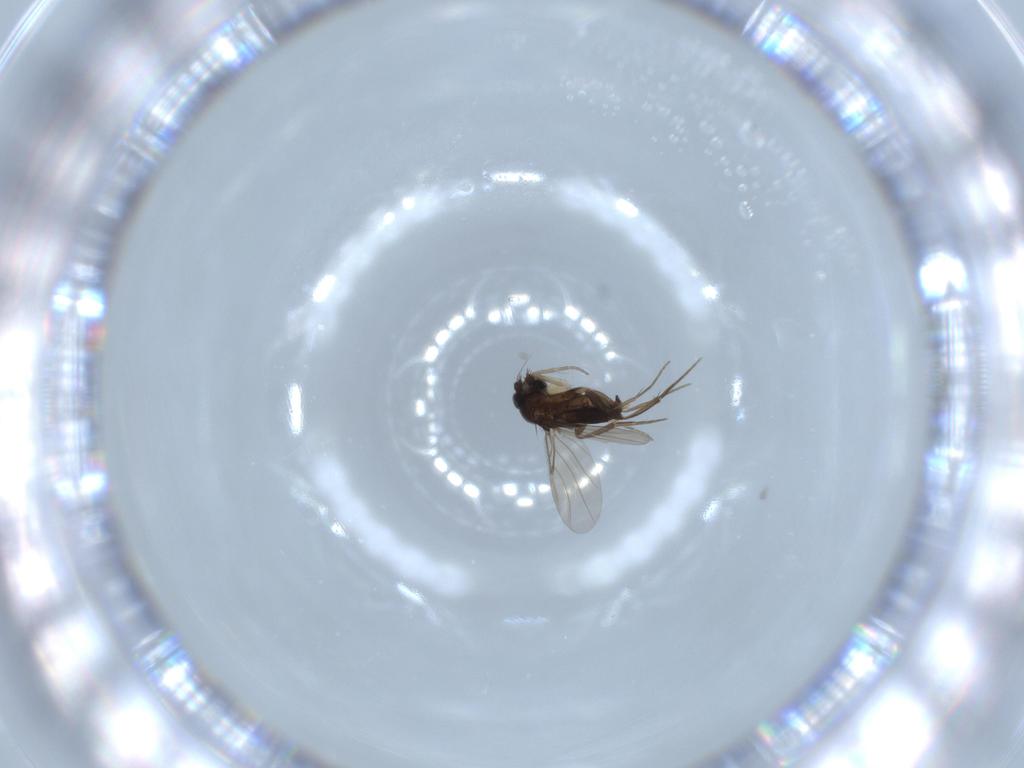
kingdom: Animalia
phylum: Arthropoda
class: Insecta
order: Diptera
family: Phoridae
